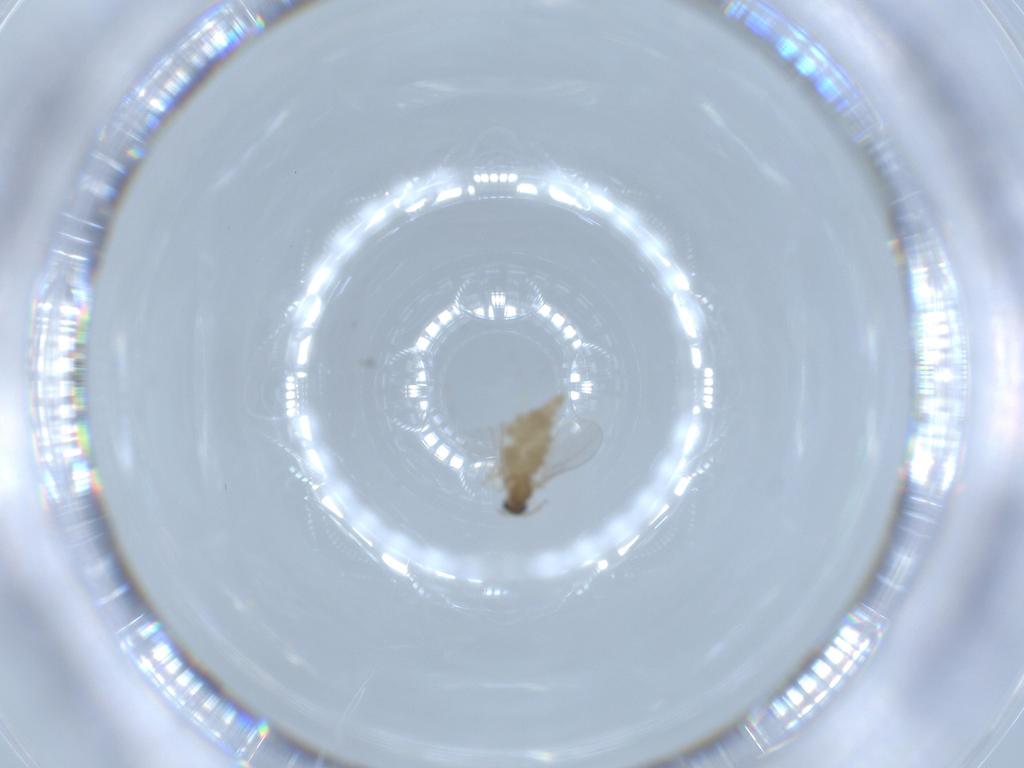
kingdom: Animalia
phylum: Arthropoda
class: Insecta
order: Diptera
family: Cecidomyiidae
